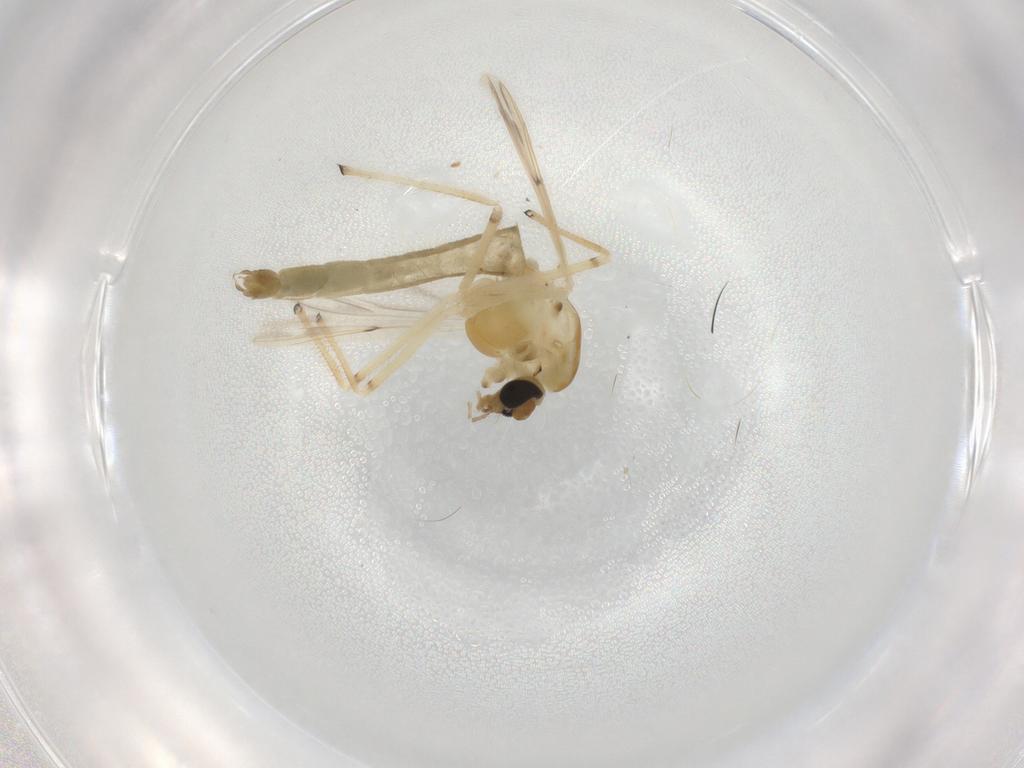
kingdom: Animalia
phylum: Arthropoda
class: Insecta
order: Diptera
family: Chironomidae
